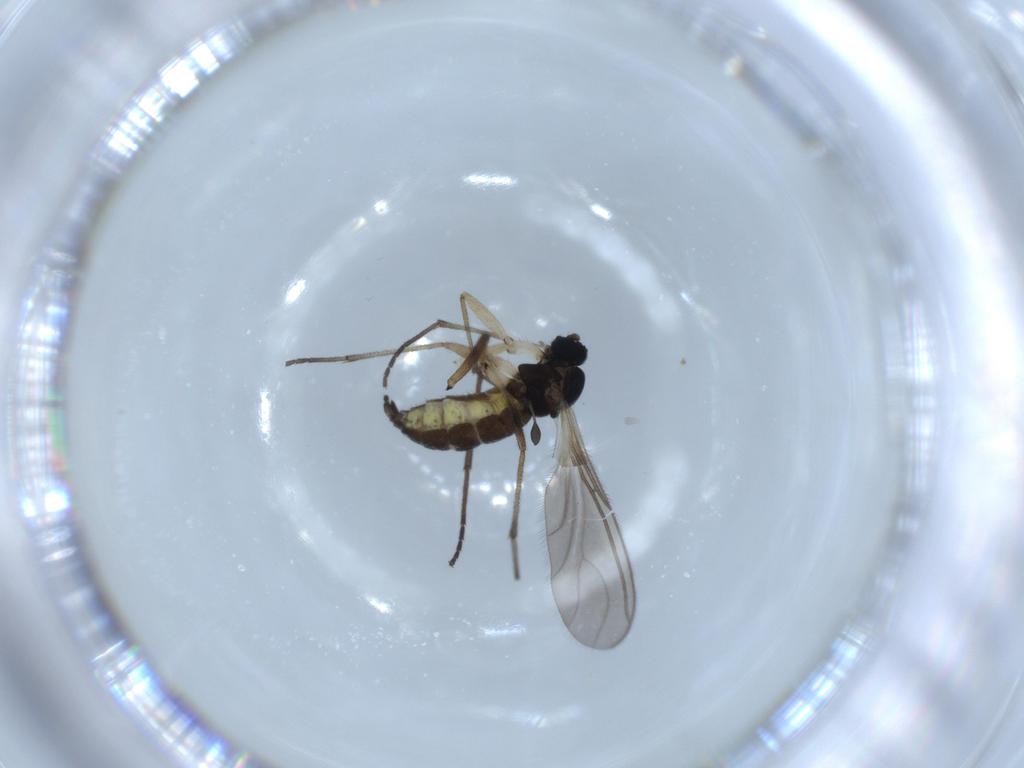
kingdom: Animalia
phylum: Arthropoda
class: Insecta
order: Diptera
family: Sciaridae
